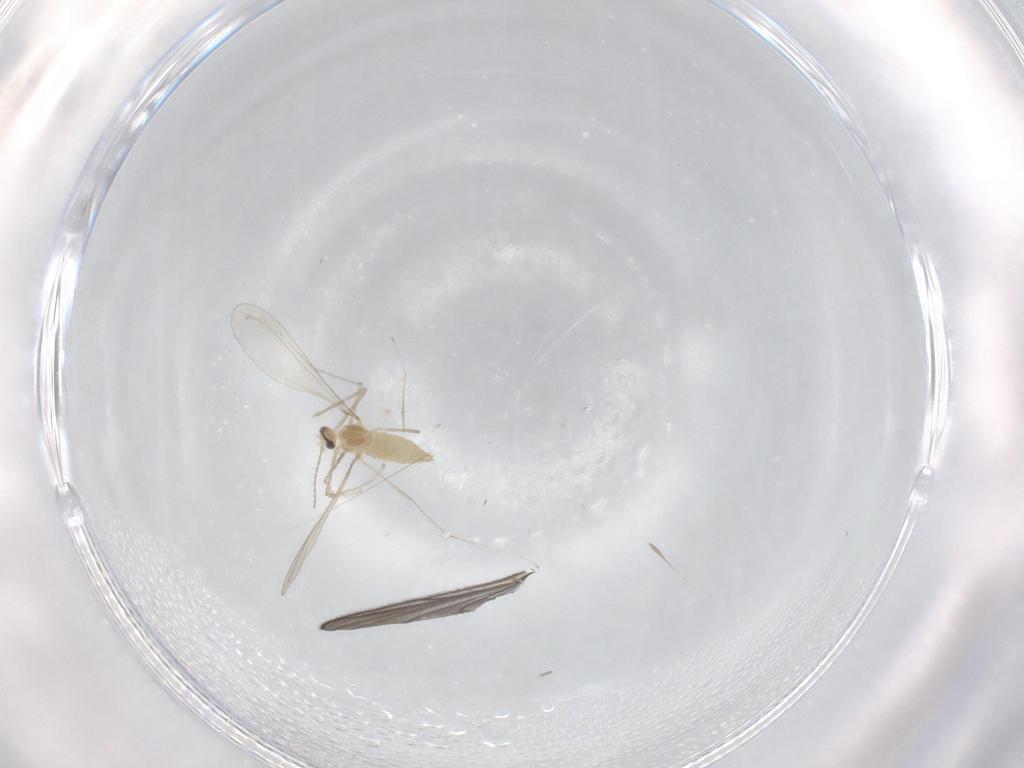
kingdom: Animalia
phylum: Arthropoda
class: Insecta
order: Diptera
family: Cecidomyiidae
